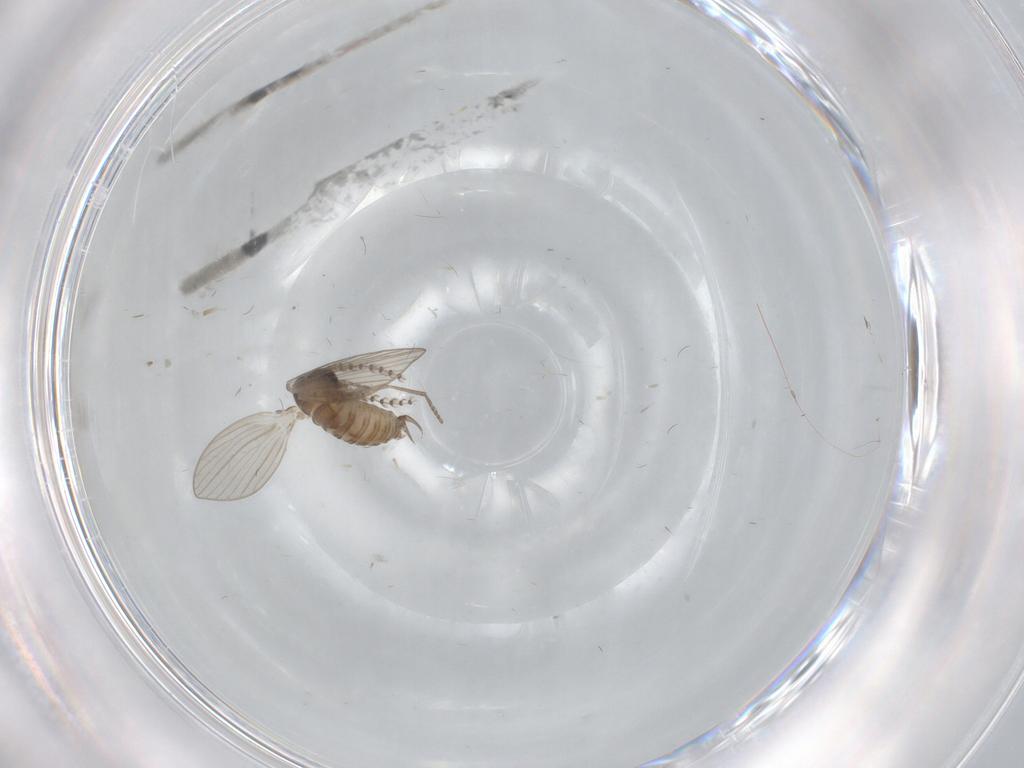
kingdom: Animalia
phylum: Arthropoda
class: Insecta
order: Diptera
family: Psychodidae
